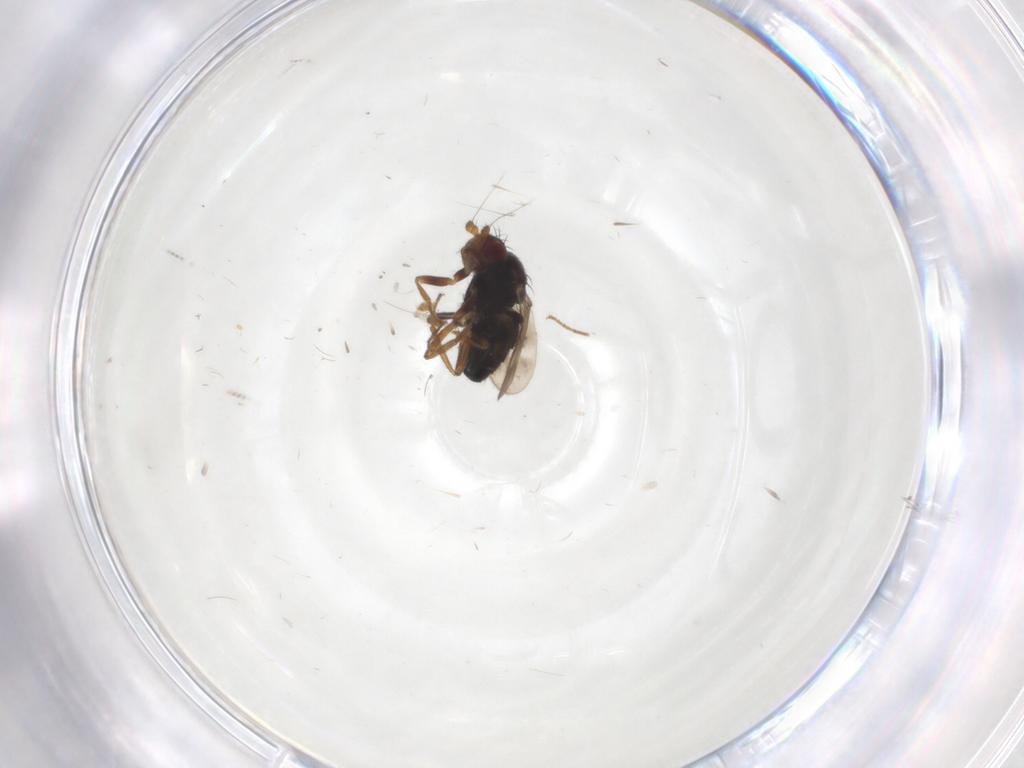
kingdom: Animalia
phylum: Arthropoda
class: Insecta
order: Diptera
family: Sphaeroceridae
